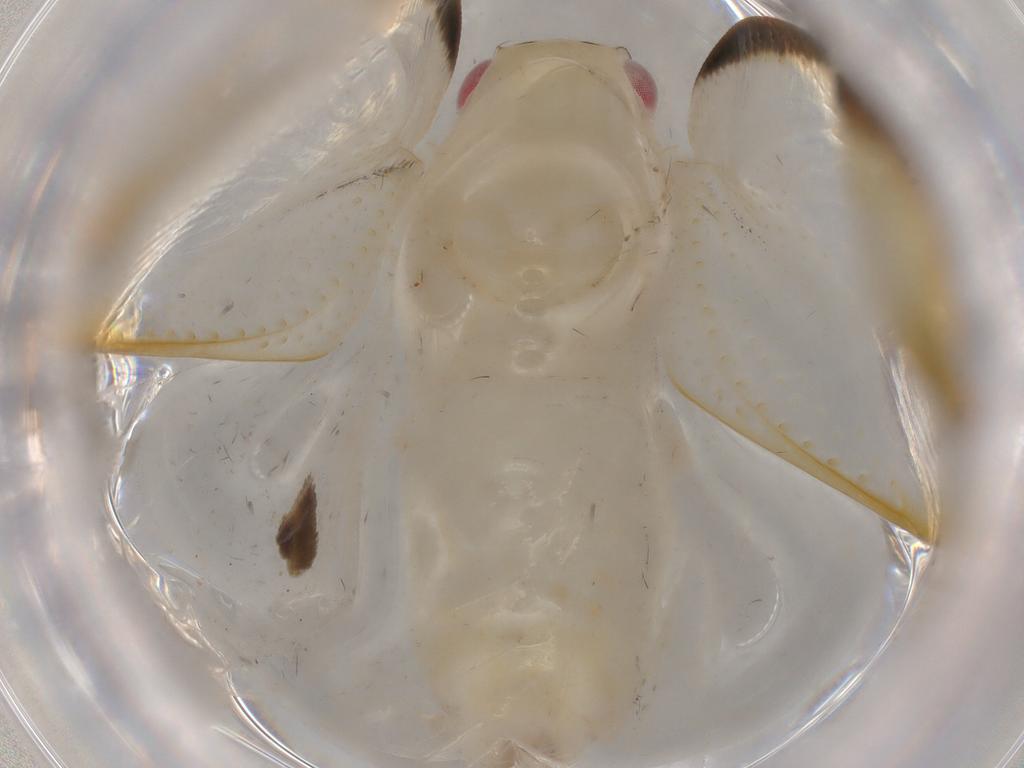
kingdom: Animalia
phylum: Arthropoda
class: Insecta
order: Hemiptera
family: Flatidae
